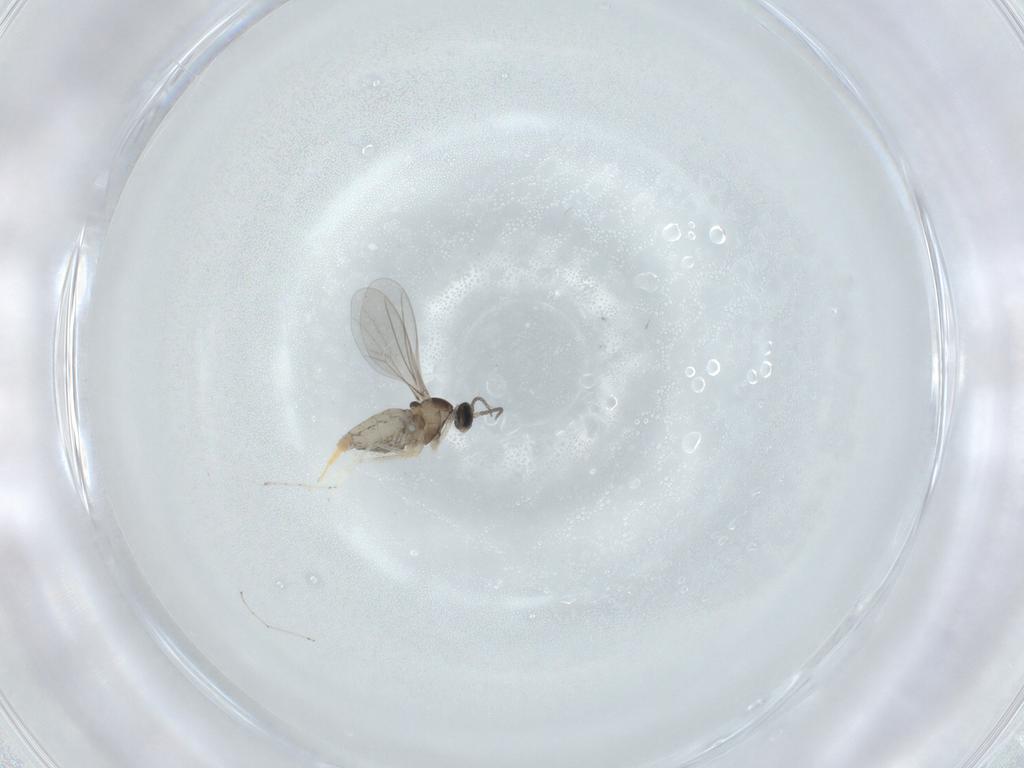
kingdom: Animalia
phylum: Arthropoda
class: Insecta
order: Diptera
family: Cecidomyiidae
